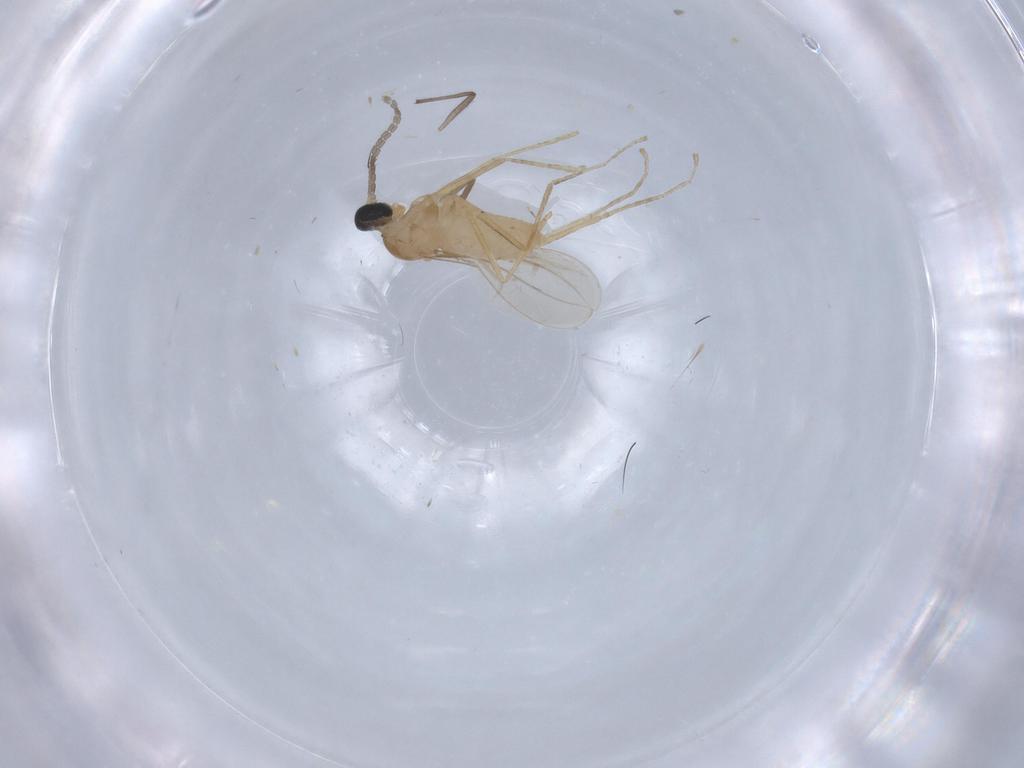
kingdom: Animalia
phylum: Arthropoda
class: Insecta
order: Diptera
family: Cecidomyiidae
